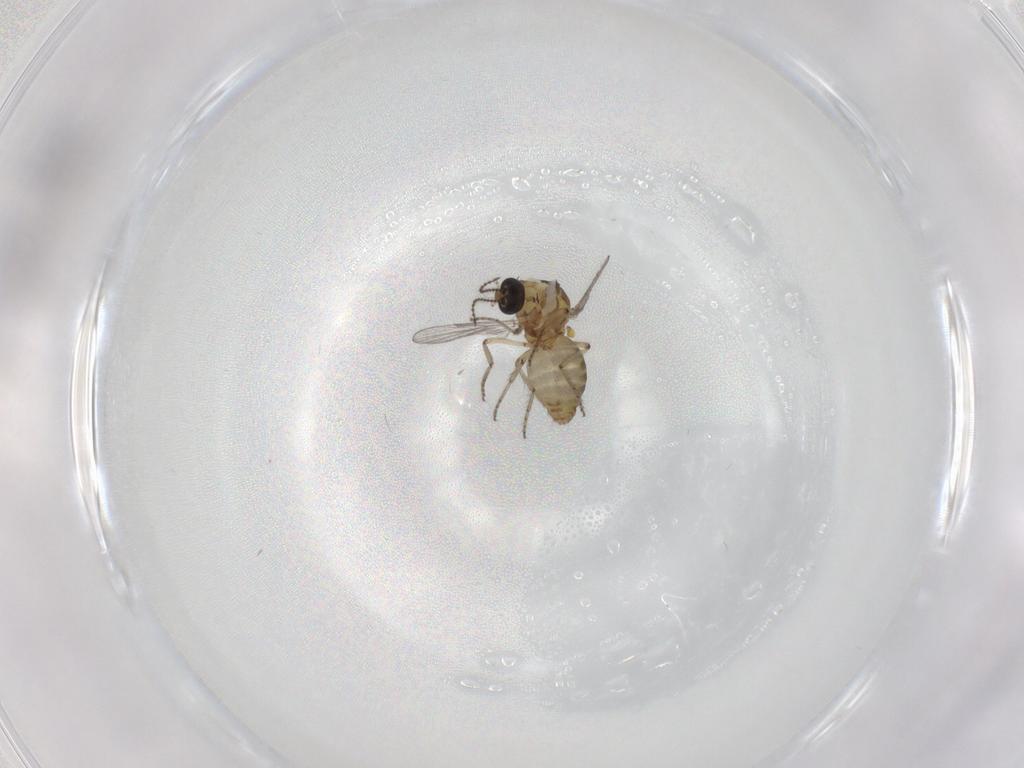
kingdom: Animalia
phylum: Arthropoda
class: Insecta
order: Diptera
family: Ceratopogonidae
